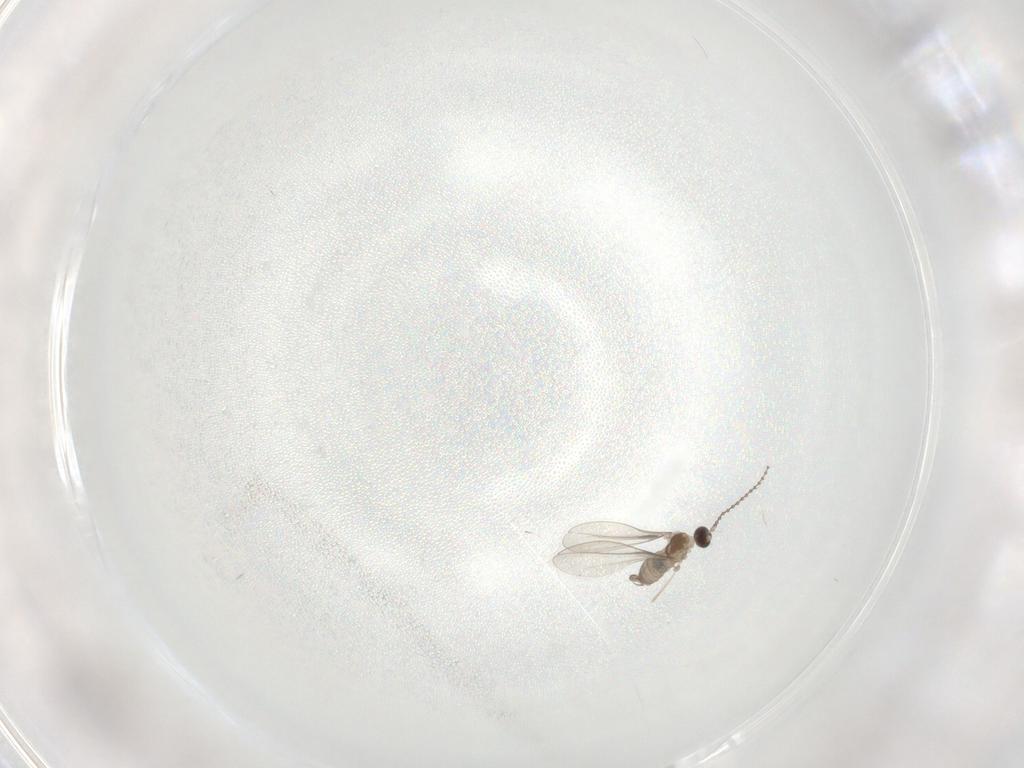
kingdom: Animalia
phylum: Arthropoda
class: Insecta
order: Diptera
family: Cecidomyiidae
